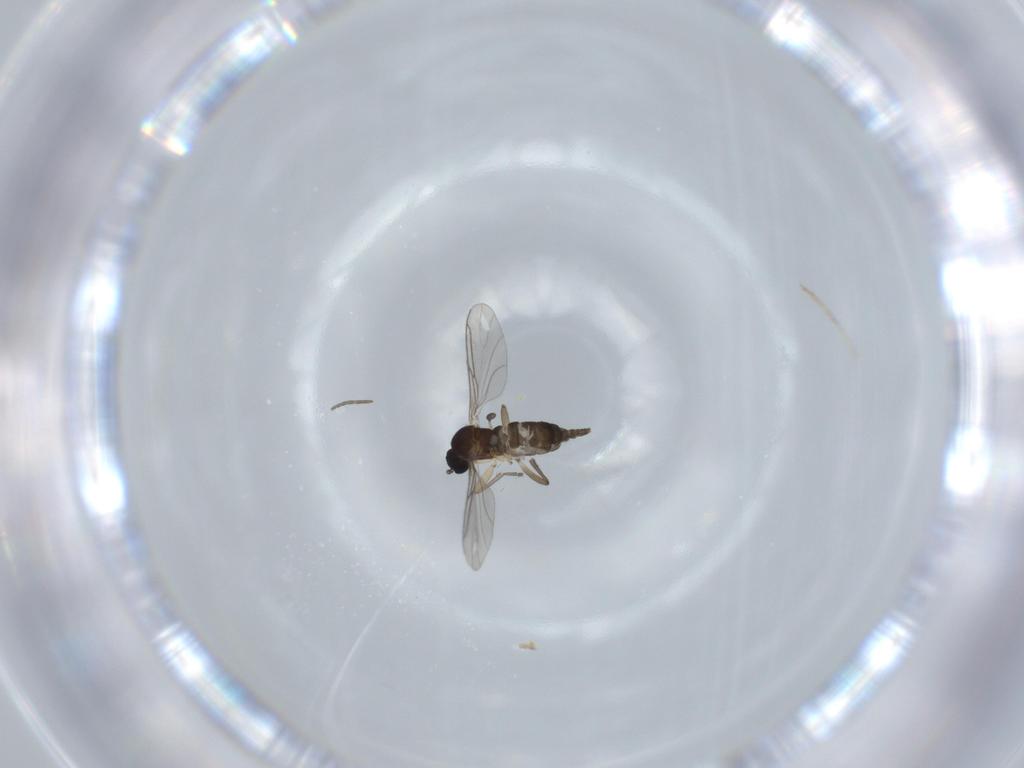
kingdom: Animalia
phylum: Arthropoda
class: Insecta
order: Diptera
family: Sciaridae
